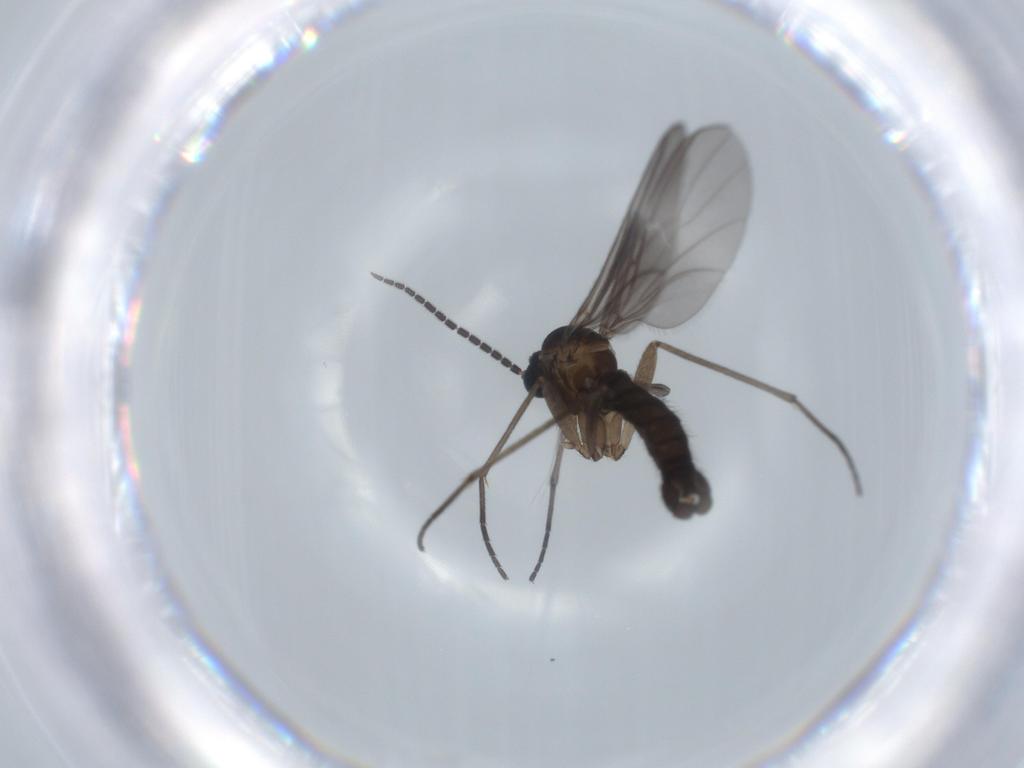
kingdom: Animalia
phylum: Arthropoda
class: Insecta
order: Diptera
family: Sciaridae
